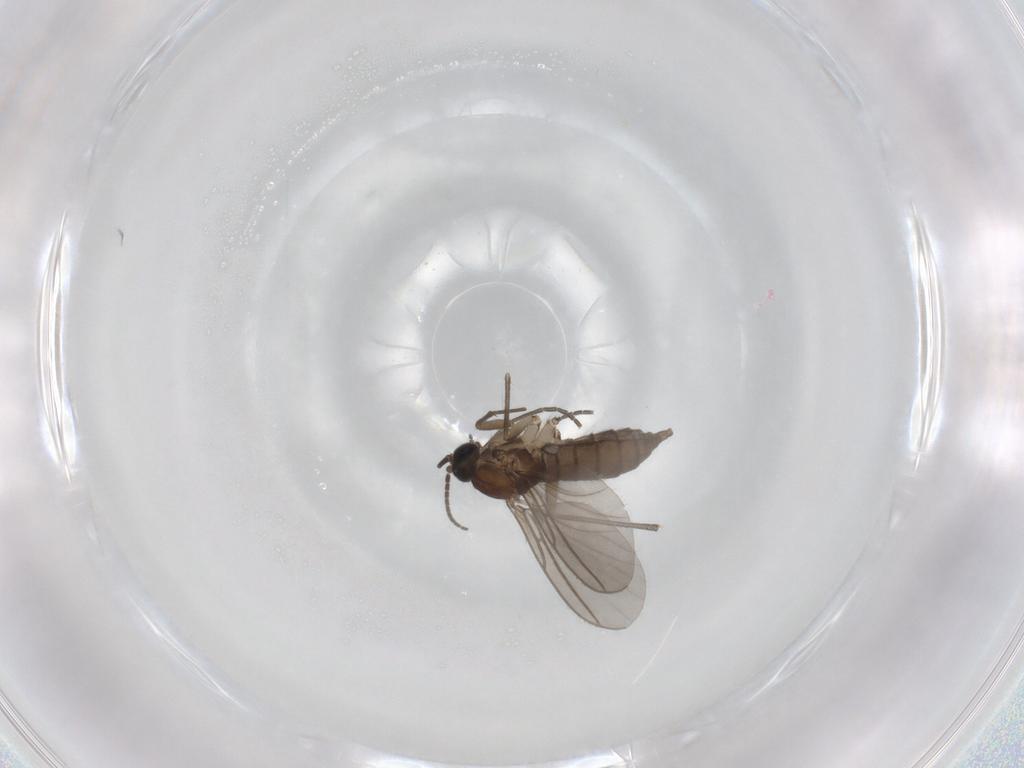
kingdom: Animalia
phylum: Arthropoda
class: Insecta
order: Diptera
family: Sciaridae
